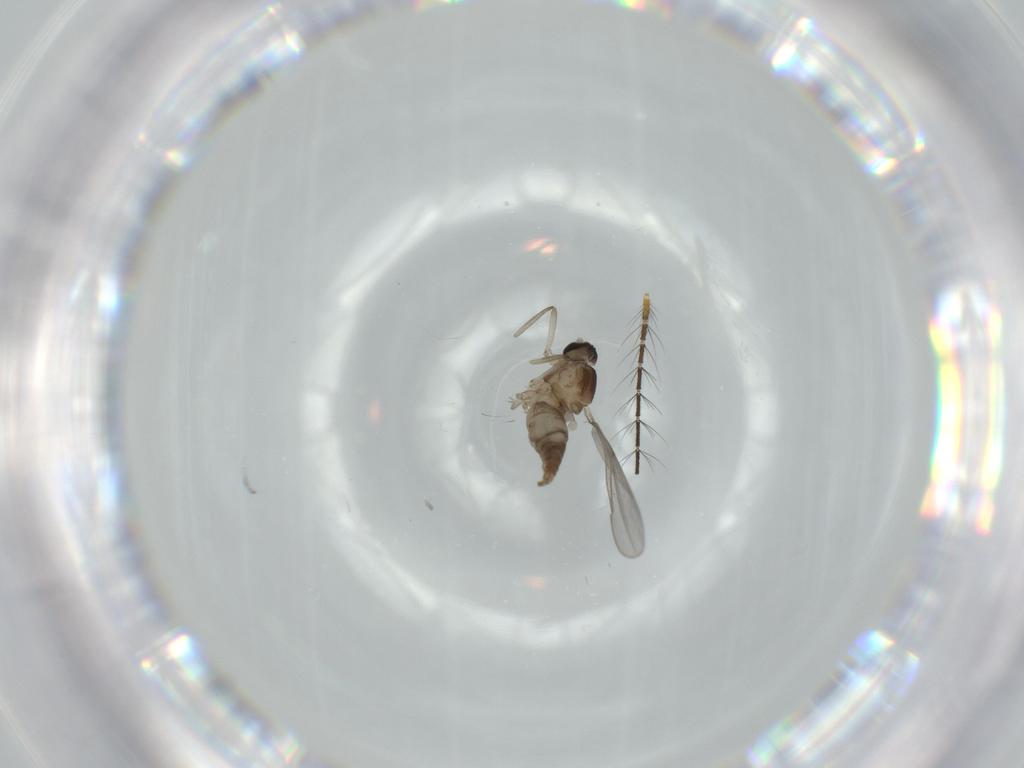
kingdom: Animalia
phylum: Arthropoda
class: Insecta
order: Diptera
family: Cecidomyiidae
